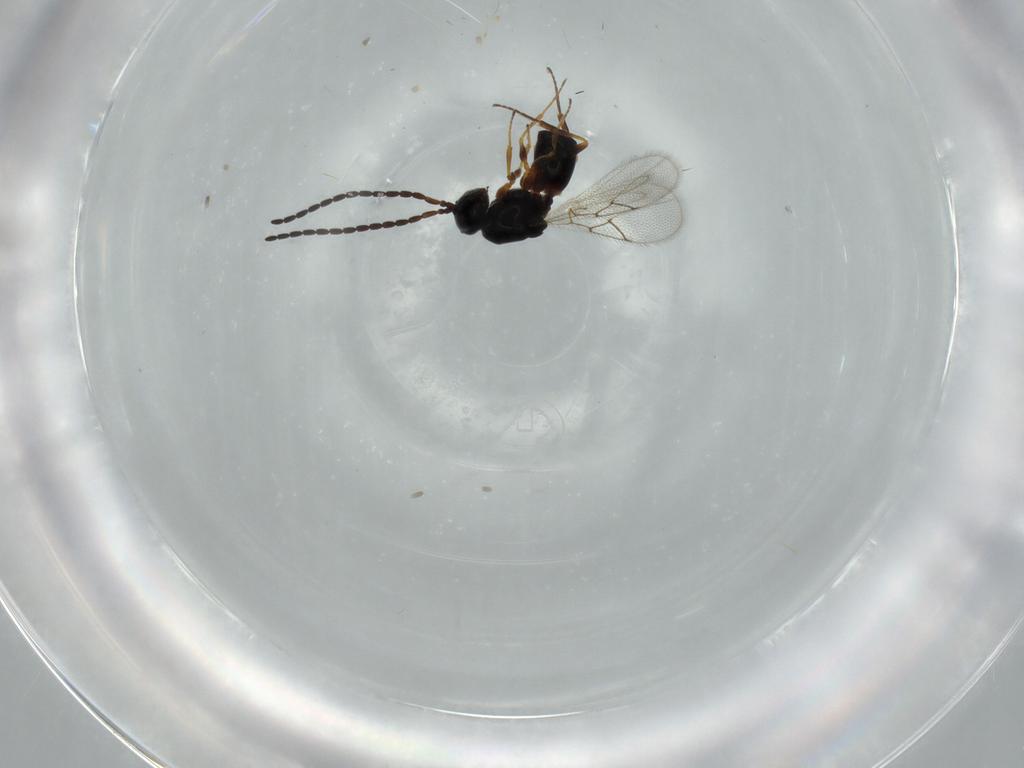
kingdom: Animalia
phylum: Arthropoda
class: Insecta
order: Hymenoptera
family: Figitidae
